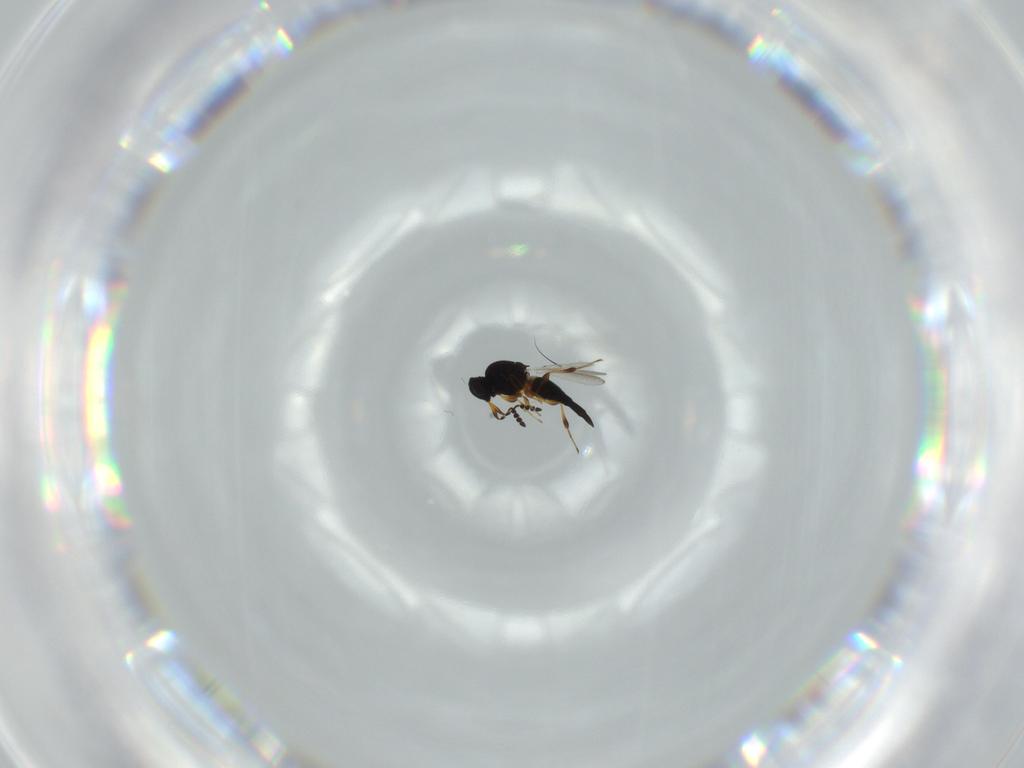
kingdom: Animalia
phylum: Arthropoda
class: Insecta
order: Hymenoptera
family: Platygastridae
